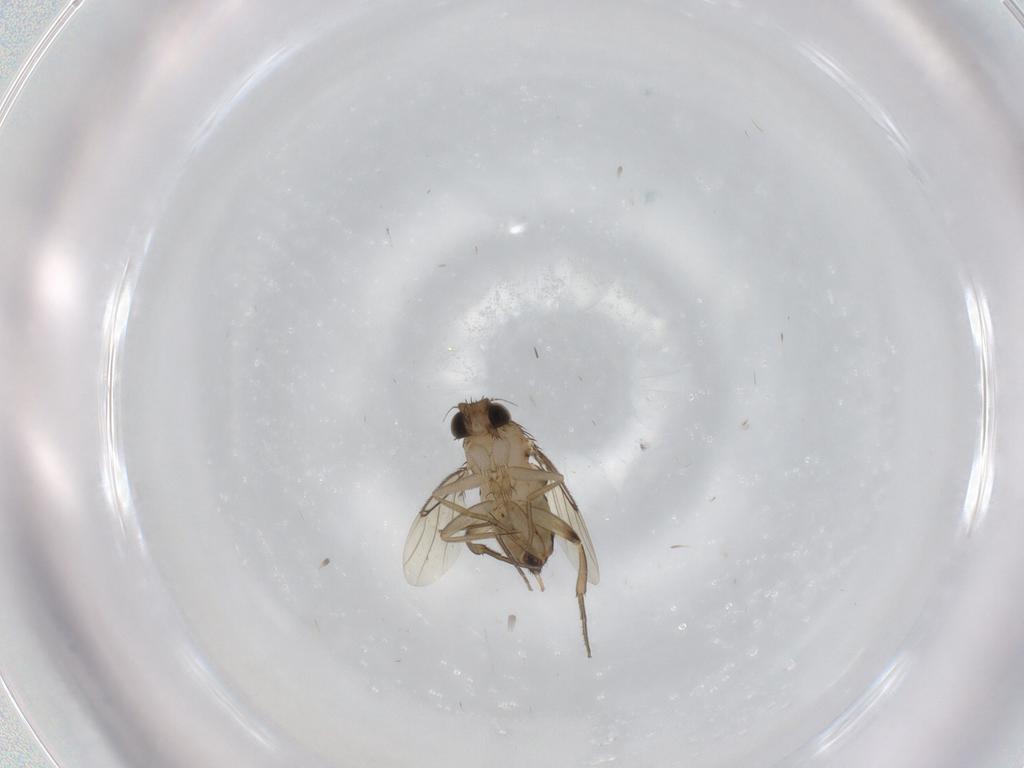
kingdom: Animalia
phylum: Arthropoda
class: Insecta
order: Diptera
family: Phoridae
